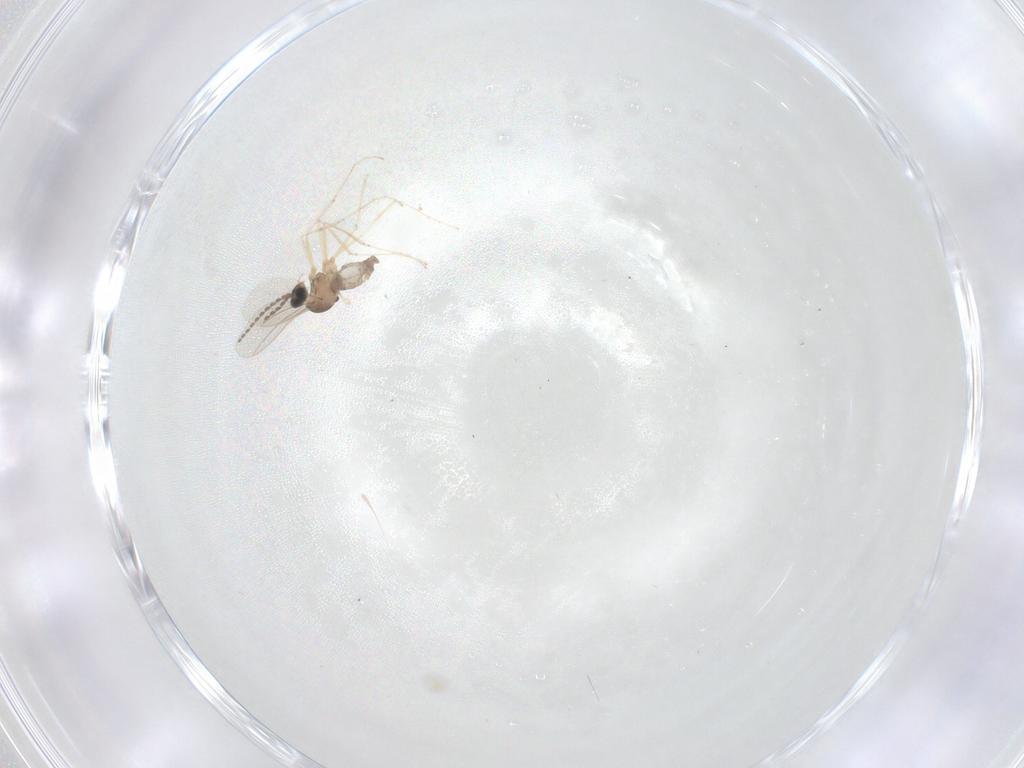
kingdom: Animalia
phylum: Arthropoda
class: Insecta
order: Diptera
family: Cecidomyiidae
